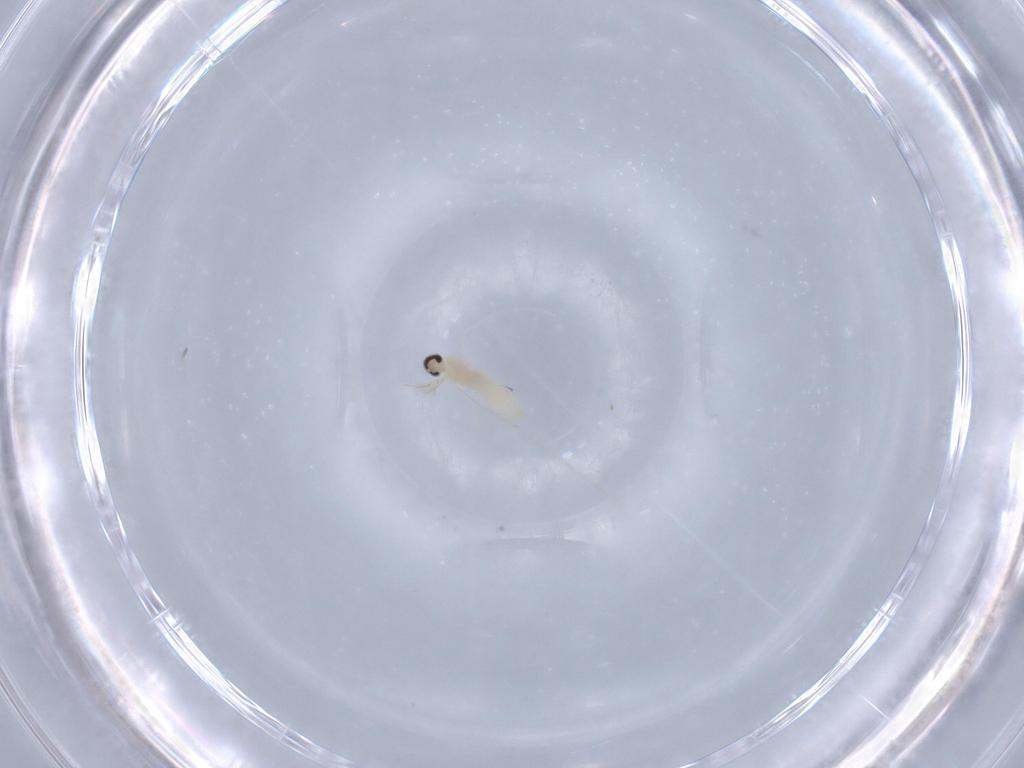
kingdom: Animalia
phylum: Arthropoda
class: Insecta
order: Diptera
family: Cecidomyiidae
